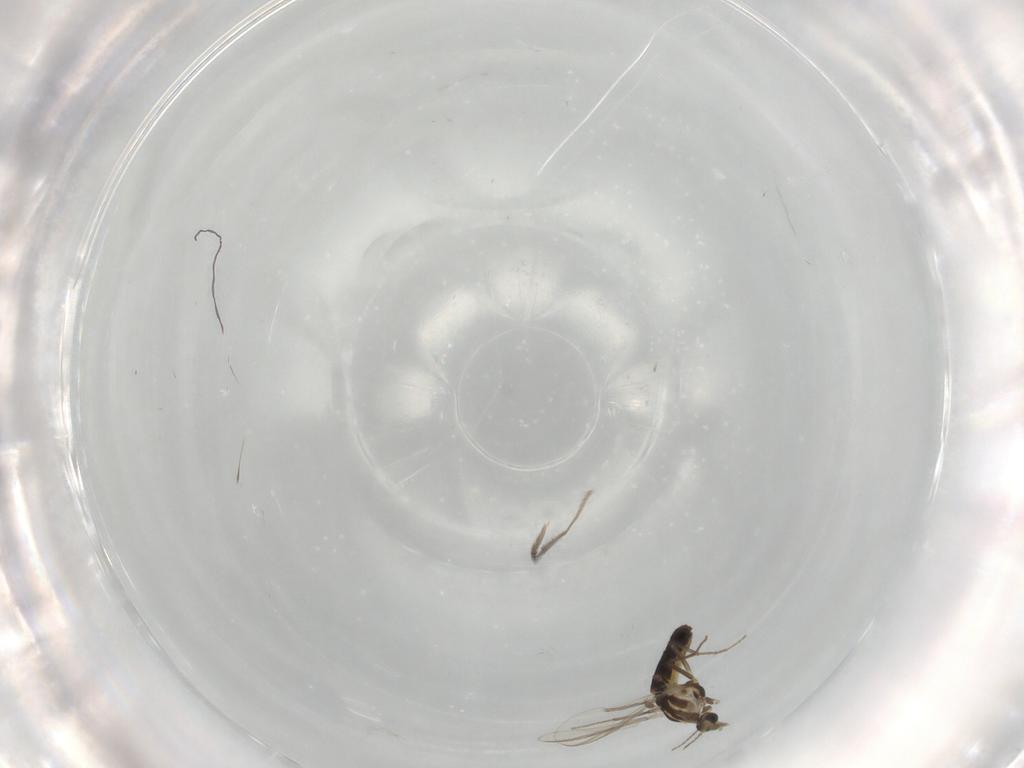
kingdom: Animalia
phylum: Arthropoda
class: Insecta
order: Diptera
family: Chironomidae
